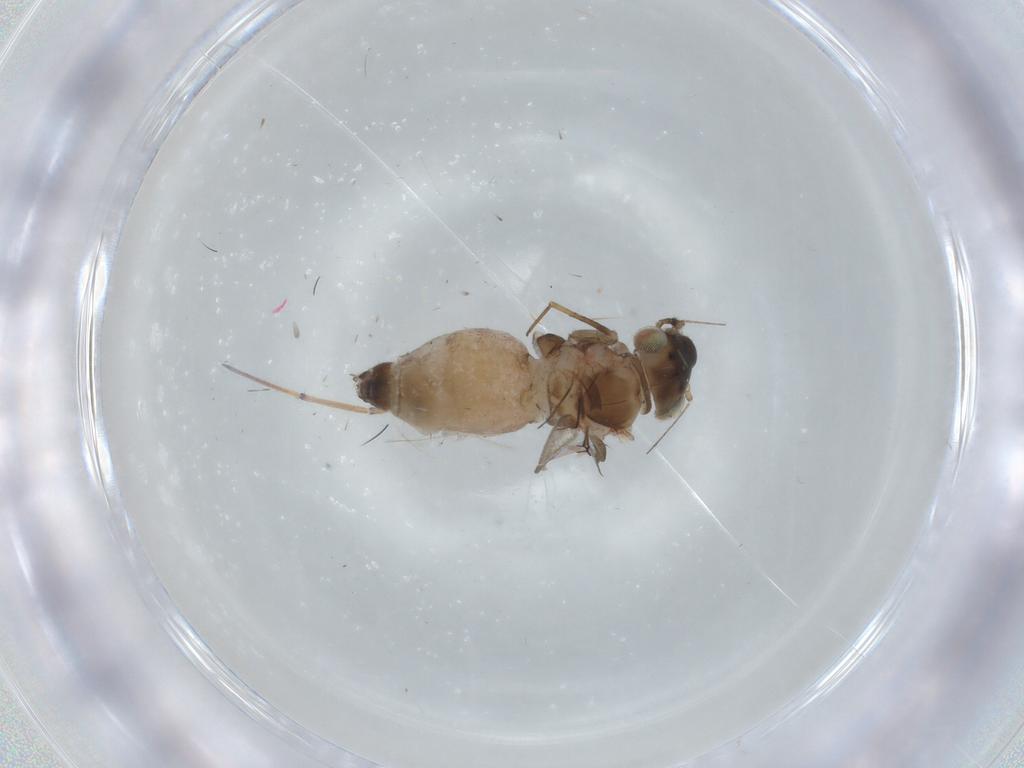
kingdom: Animalia
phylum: Arthropoda
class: Insecta
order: Psocodea
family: Lepidopsocidae
